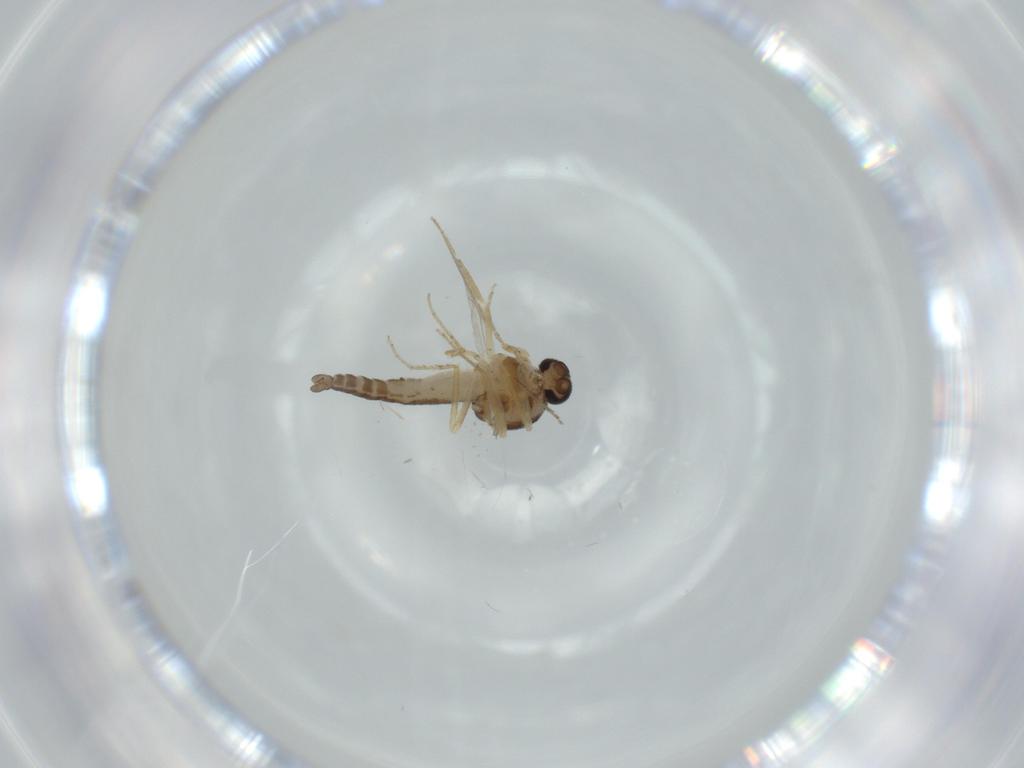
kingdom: Animalia
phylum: Arthropoda
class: Insecta
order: Diptera
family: Ceratopogonidae
